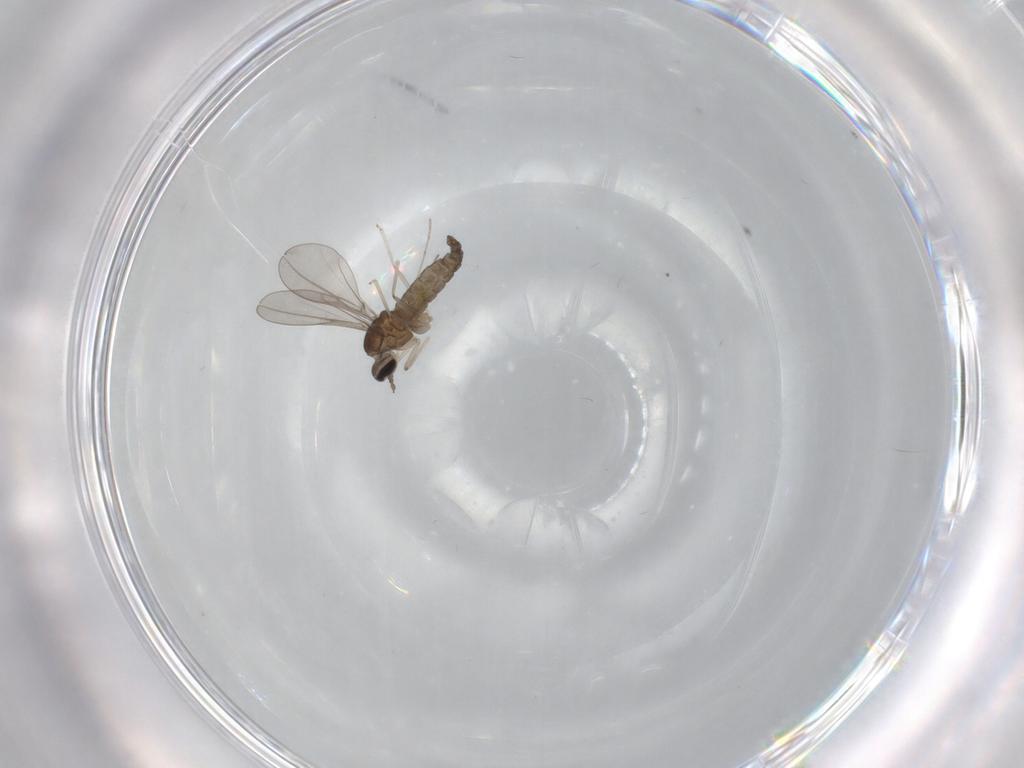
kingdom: Animalia
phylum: Arthropoda
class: Insecta
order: Diptera
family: Cecidomyiidae
